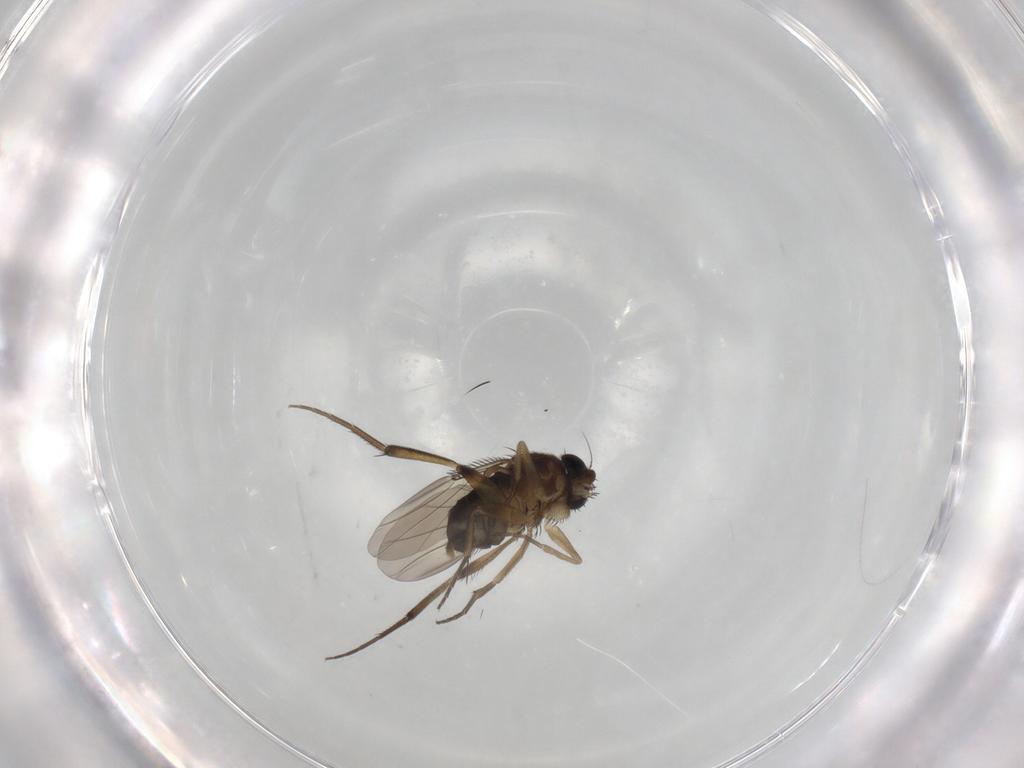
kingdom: Animalia
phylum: Arthropoda
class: Insecta
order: Diptera
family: Phoridae
